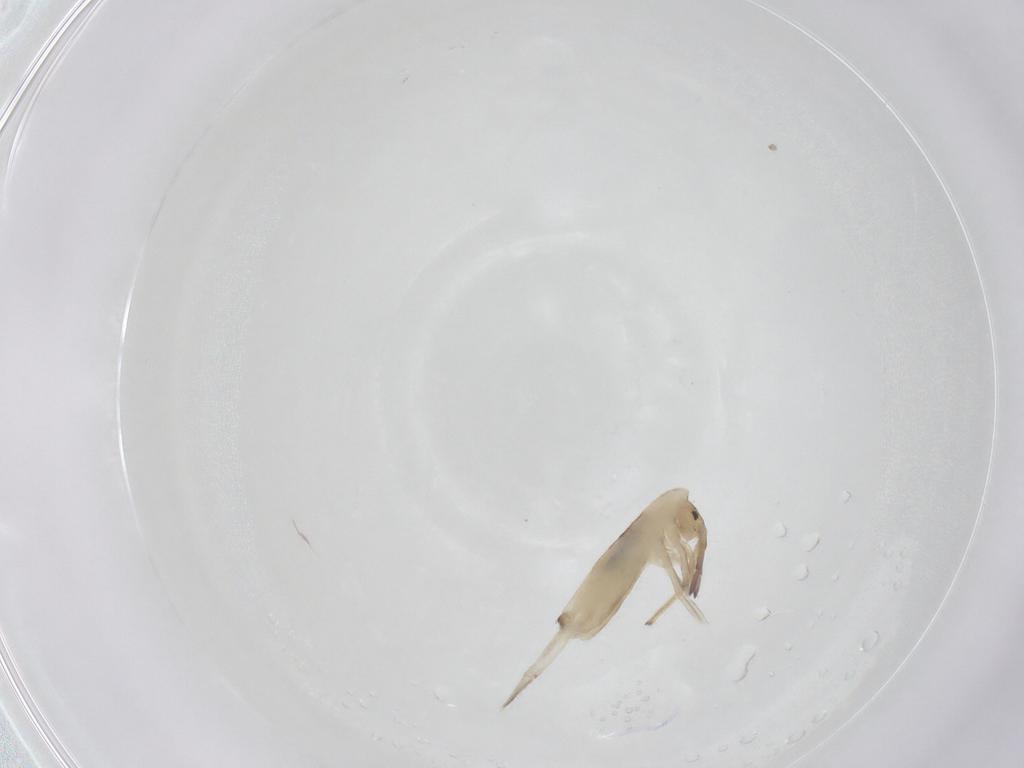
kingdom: Animalia
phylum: Arthropoda
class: Collembola
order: Entomobryomorpha
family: Entomobryidae
